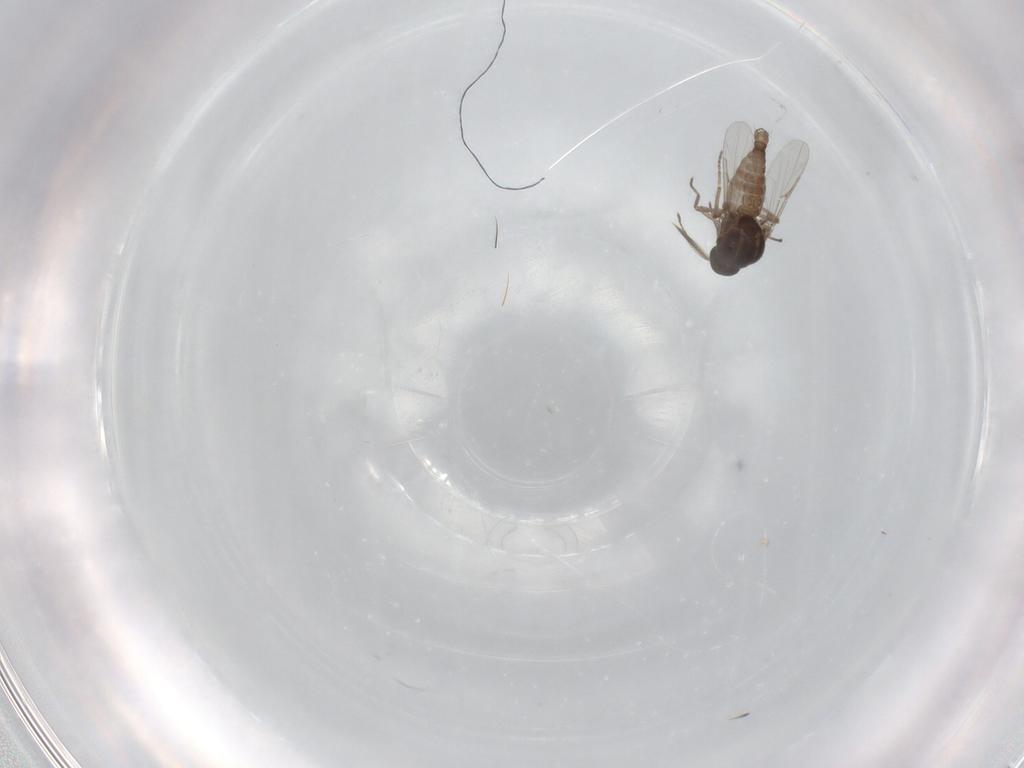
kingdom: Animalia
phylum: Arthropoda
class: Insecta
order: Diptera
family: Ceratopogonidae
